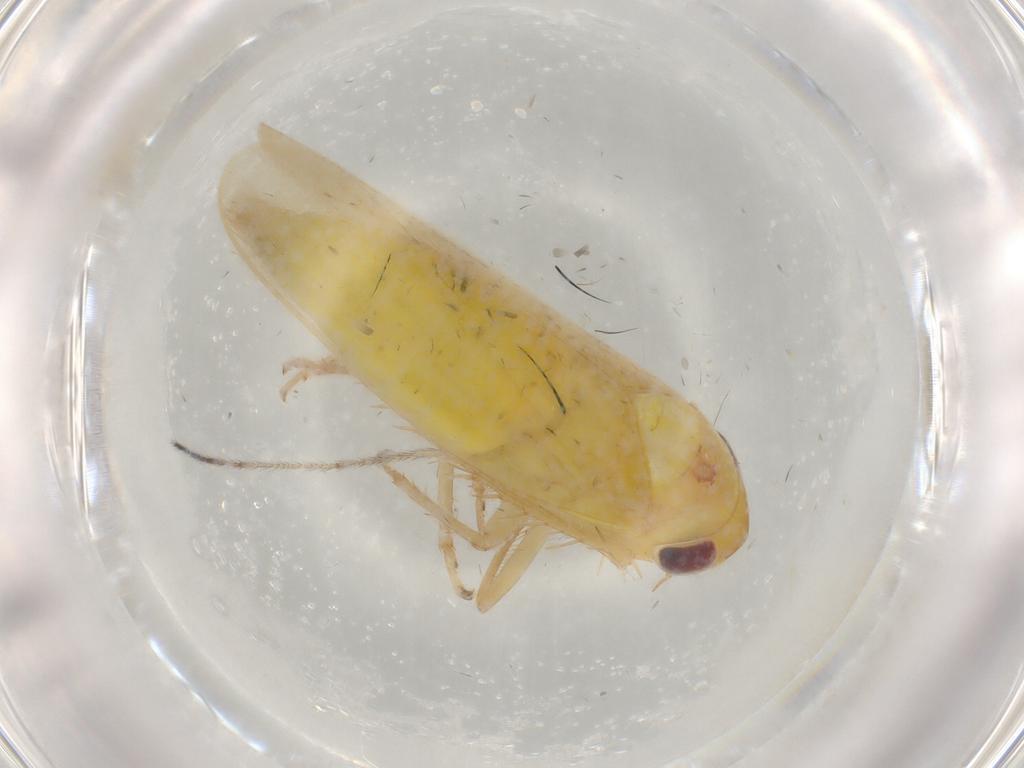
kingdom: Animalia
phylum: Arthropoda
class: Insecta
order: Hemiptera
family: Cicadellidae
